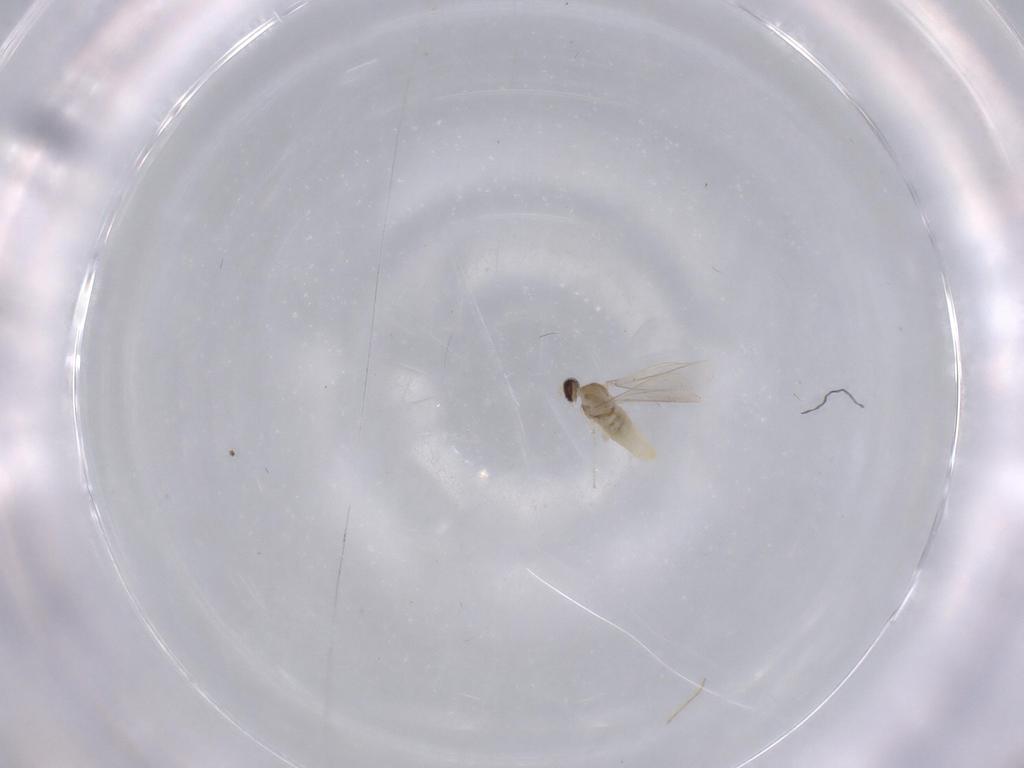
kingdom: Animalia
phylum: Arthropoda
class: Insecta
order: Diptera
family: Cecidomyiidae
